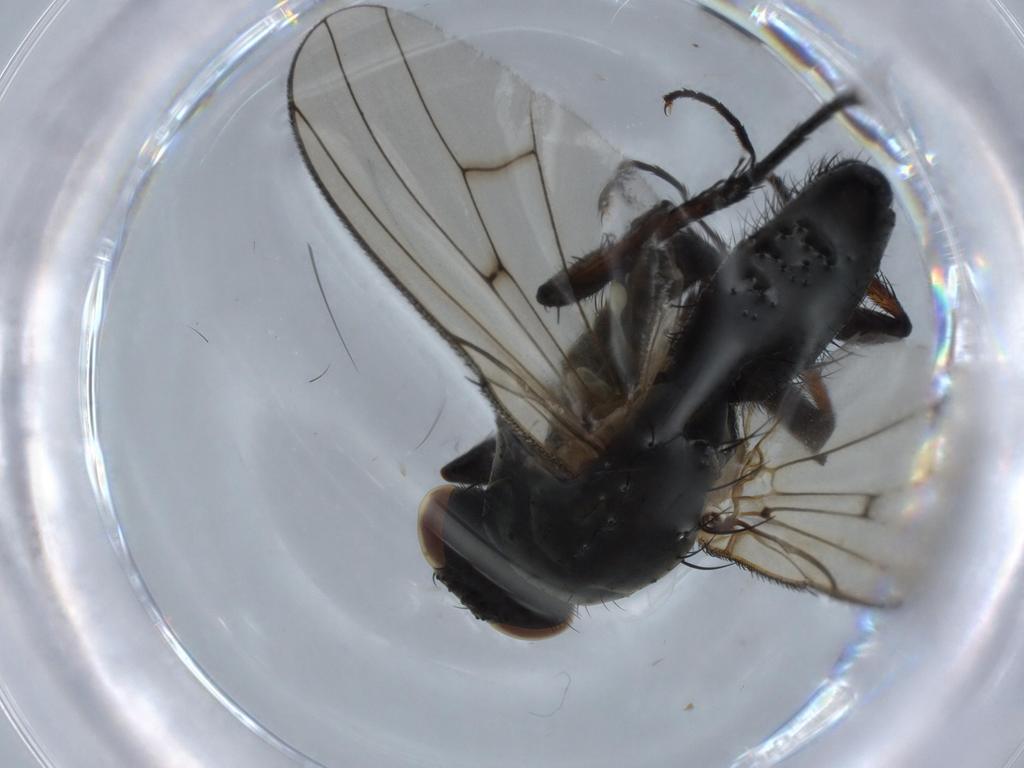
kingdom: Animalia
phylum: Arthropoda
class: Insecta
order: Diptera
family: Anthomyiidae
